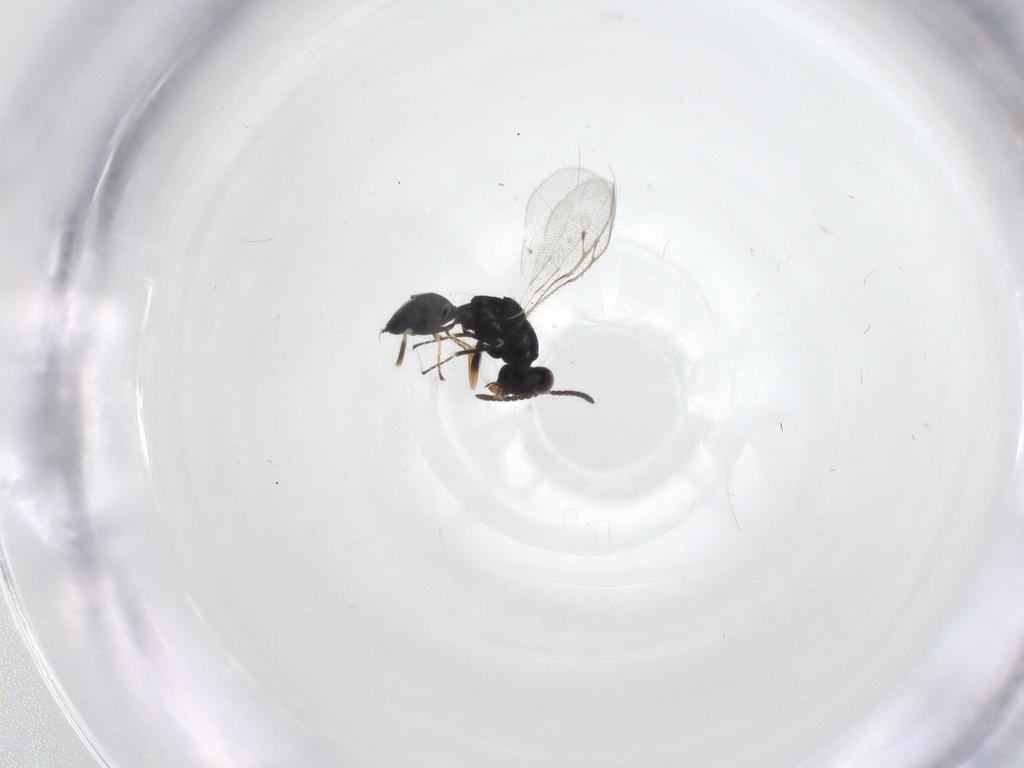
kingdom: Animalia
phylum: Arthropoda
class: Insecta
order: Hymenoptera
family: Pteromalidae
